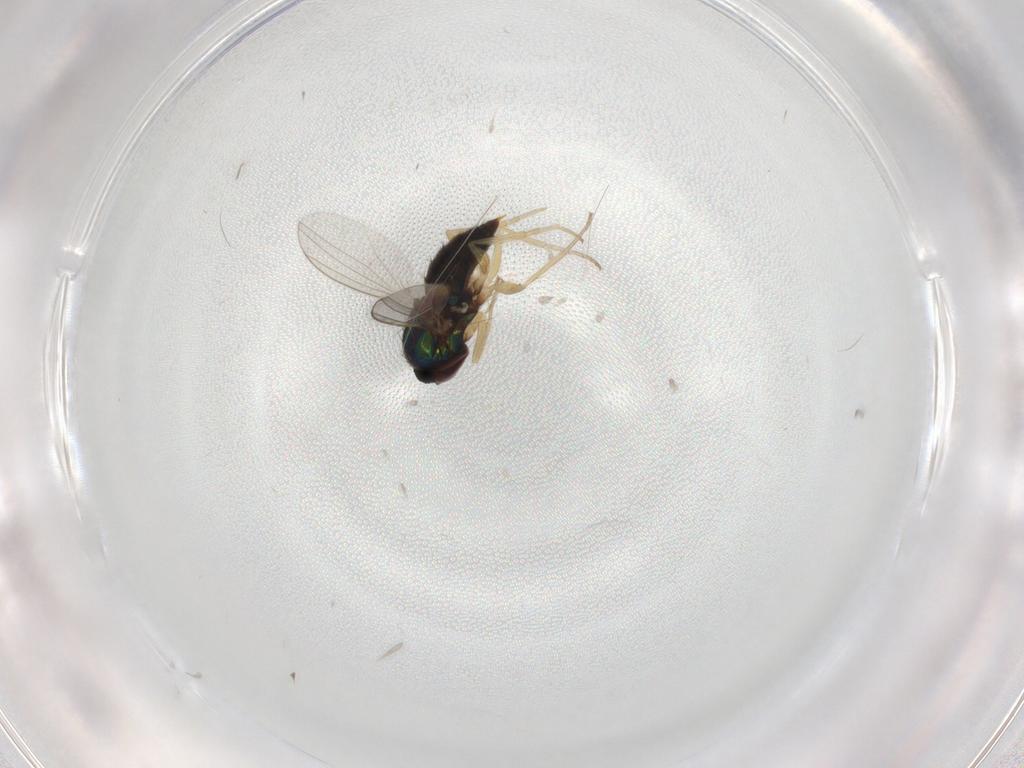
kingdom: Animalia
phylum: Arthropoda
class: Insecta
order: Diptera
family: Dolichopodidae
